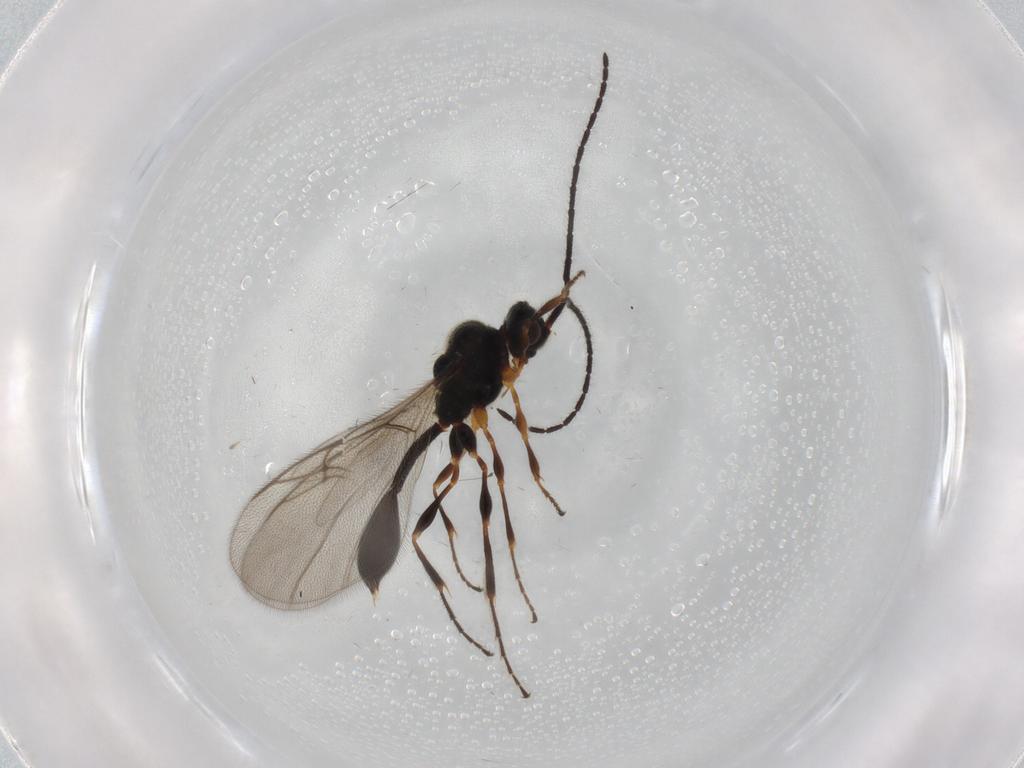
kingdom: Animalia
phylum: Arthropoda
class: Insecta
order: Hymenoptera
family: Diapriidae
